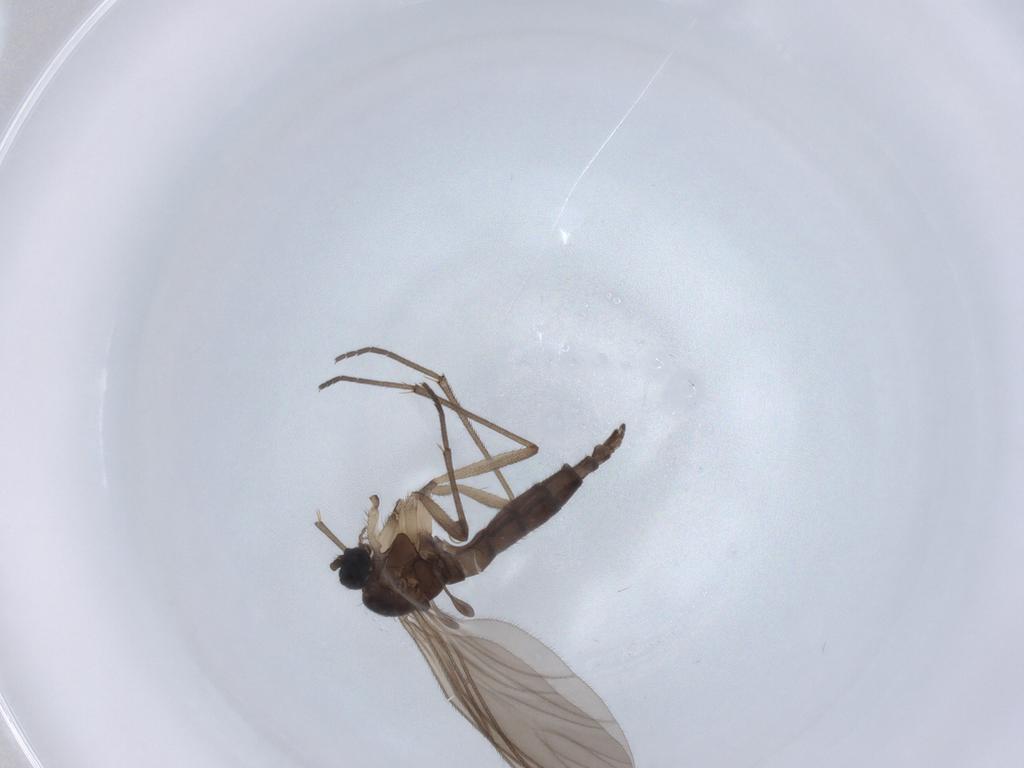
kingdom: Animalia
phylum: Arthropoda
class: Insecta
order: Diptera
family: Sciaridae
